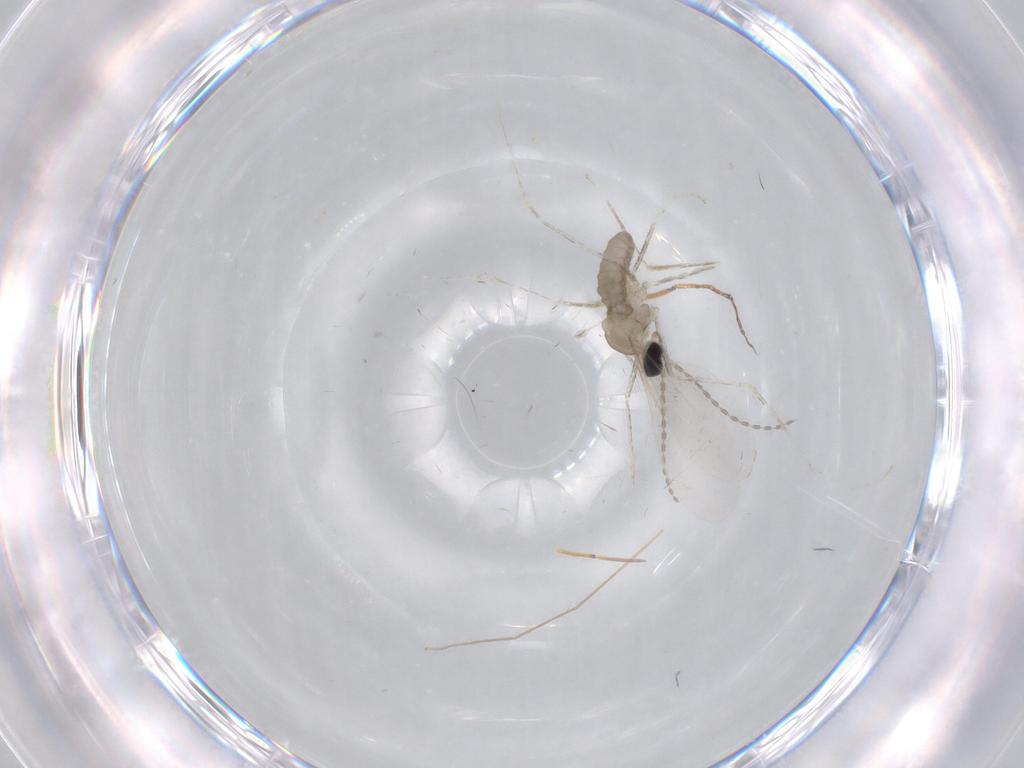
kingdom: Animalia
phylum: Arthropoda
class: Insecta
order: Diptera
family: Cecidomyiidae
